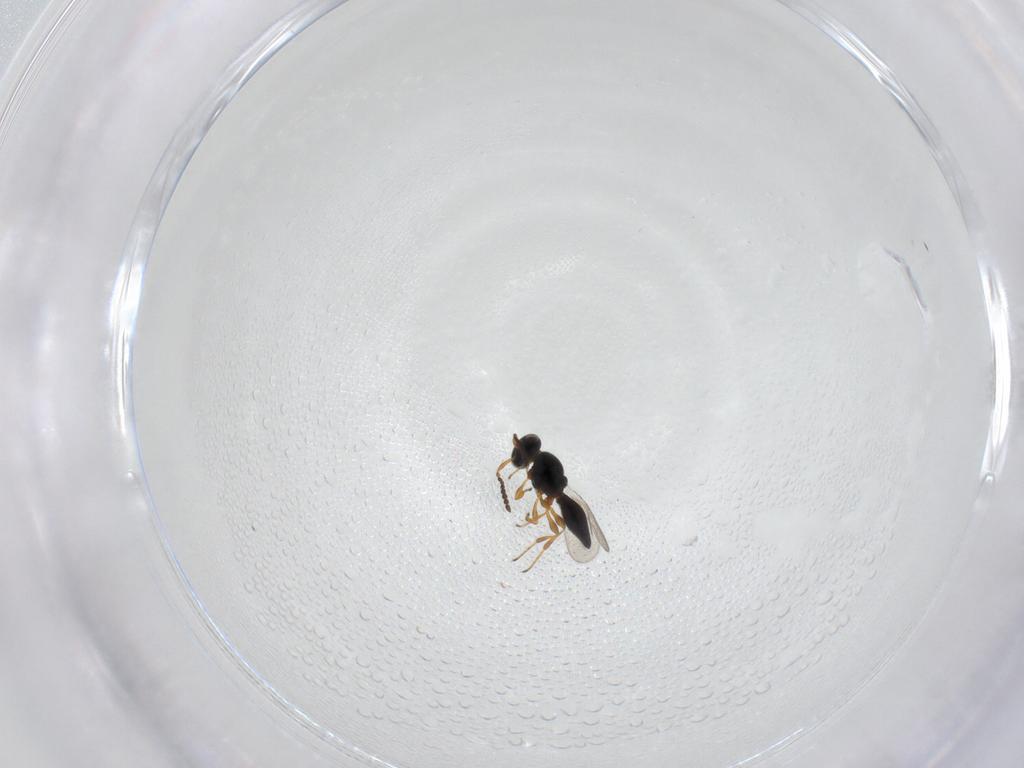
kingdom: Animalia
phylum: Arthropoda
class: Insecta
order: Hymenoptera
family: Platygastridae
